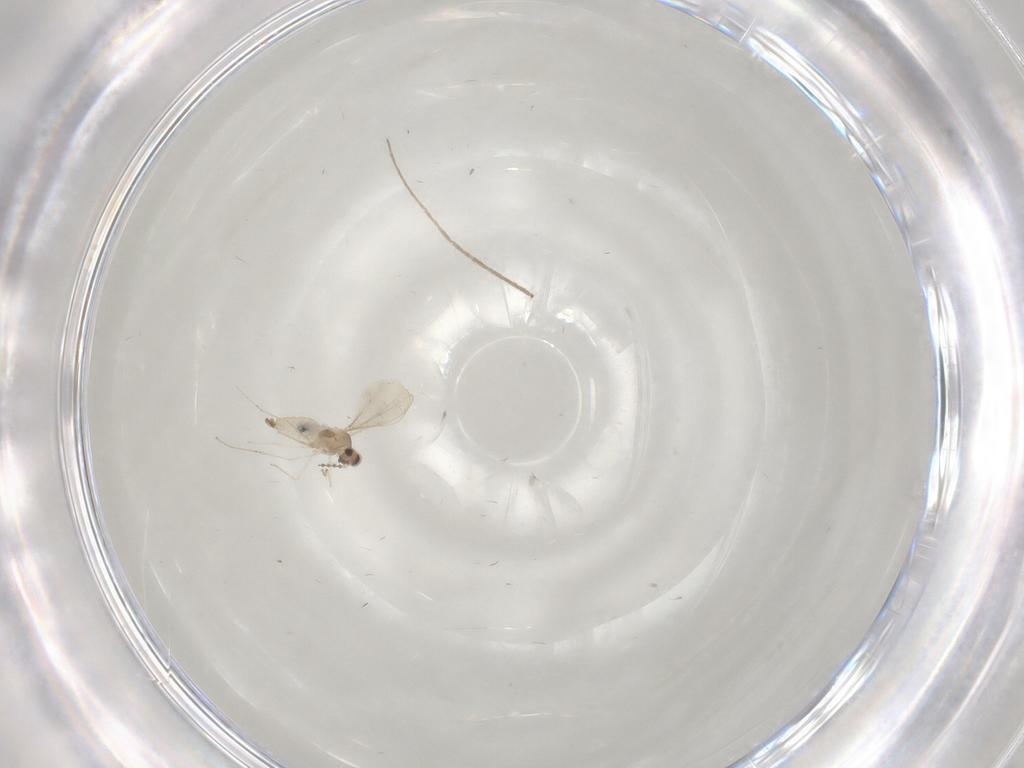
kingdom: Animalia
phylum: Arthropoda
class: Insecta
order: Diptera
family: Cecidomyiidae
